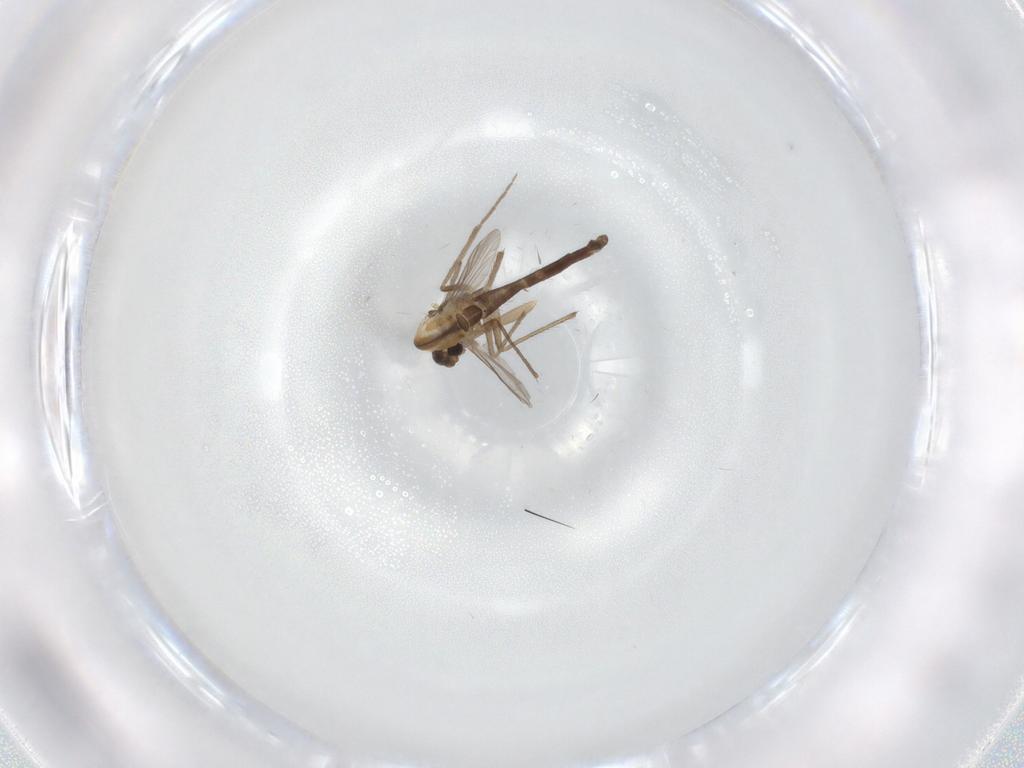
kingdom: Animalia
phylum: Arthropoda
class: Insecta
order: Diptera
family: Chironomidae
